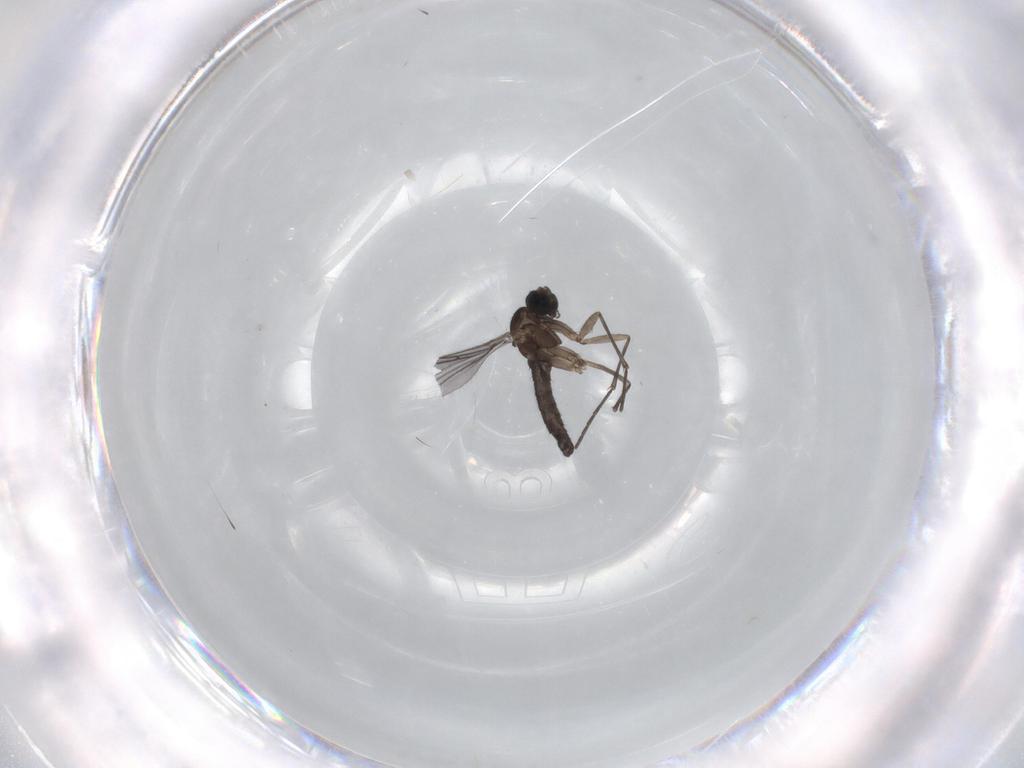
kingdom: Animalia
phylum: Arthropoda
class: Insecta
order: Diptera
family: Sciaridae
